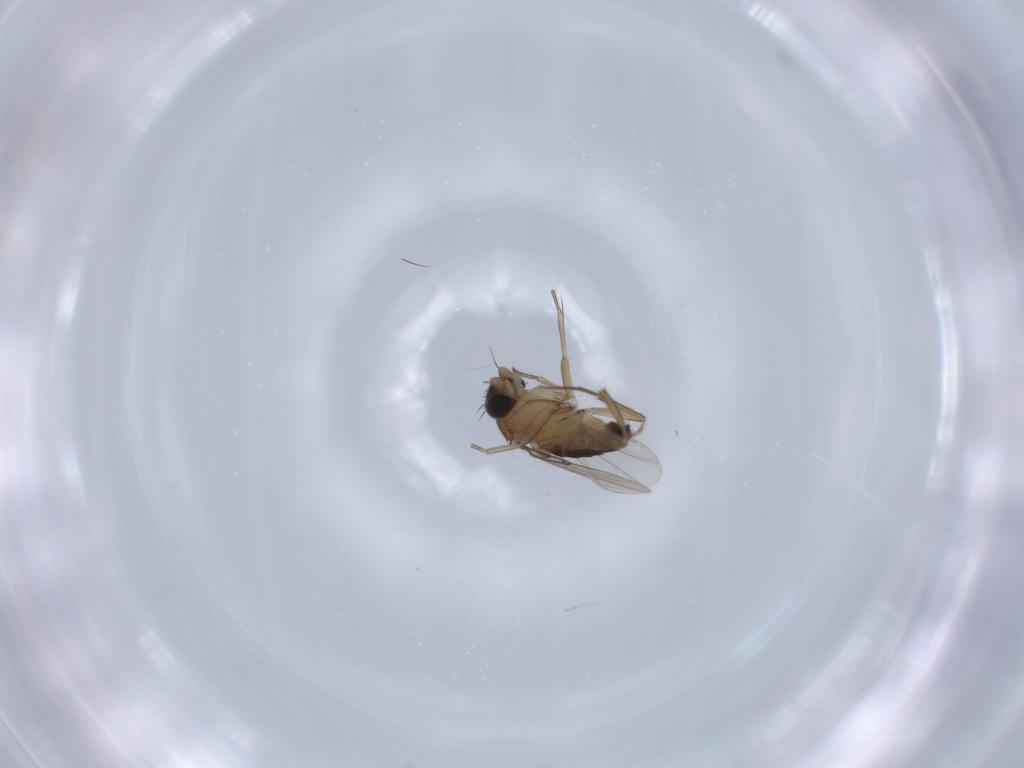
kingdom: Animalia
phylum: Arthropoda
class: Insecta
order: Diptera
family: Phoridae
